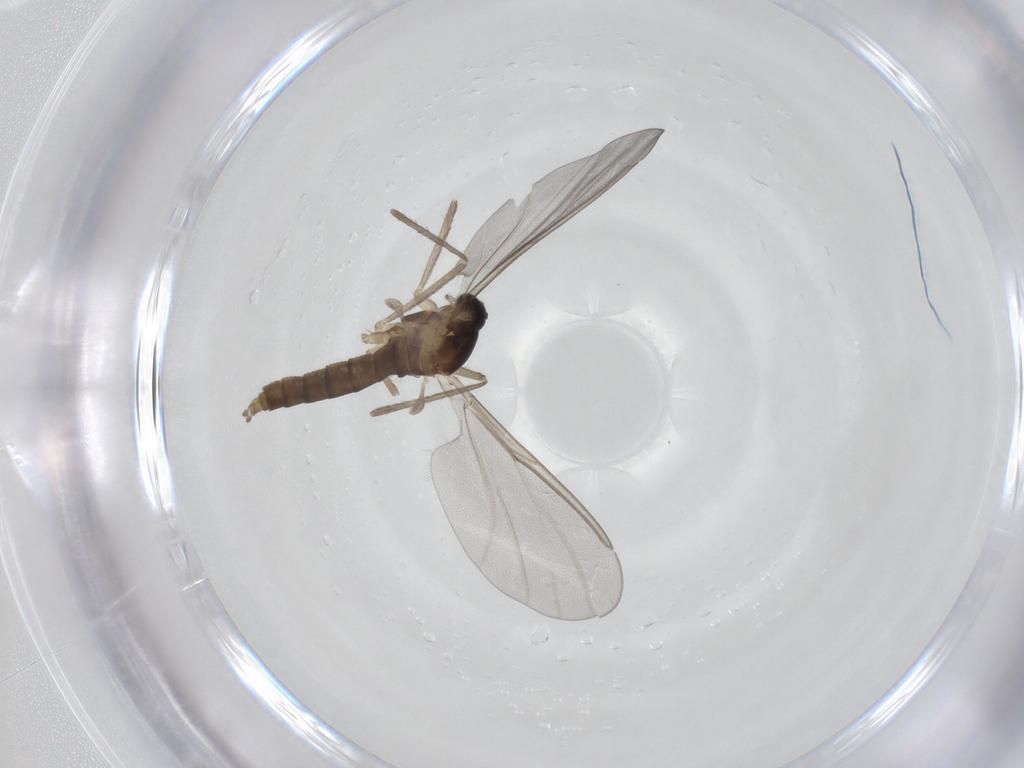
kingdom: Animalia
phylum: Arthropoda
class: Insecta
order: Diptera
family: Cecidomyiidae
